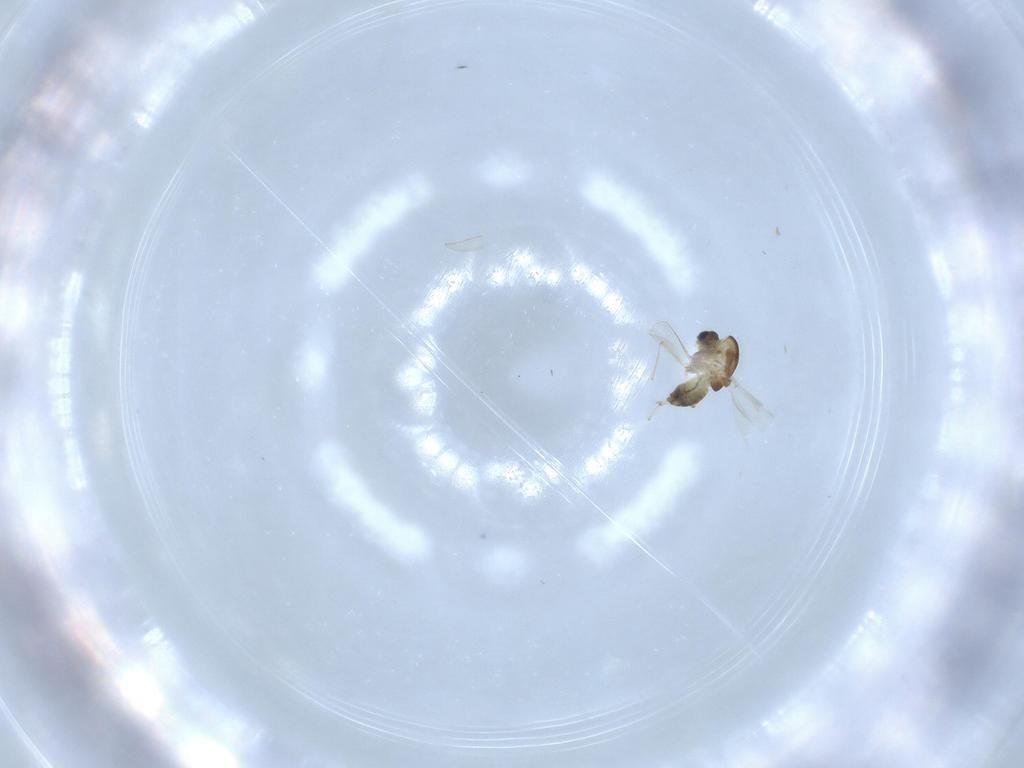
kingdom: Animalia
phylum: Arthropoda
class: Insecta
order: Diptera
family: Chironomidae
